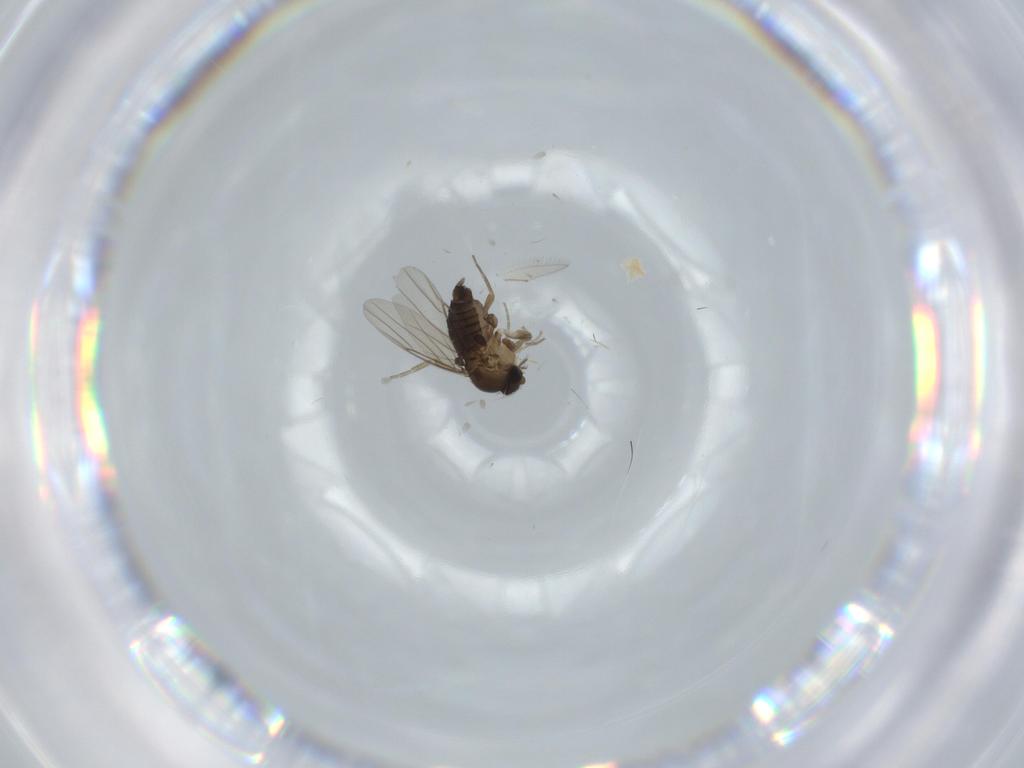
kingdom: Animalia
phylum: Arthropoda
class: Insecta
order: Diptera
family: Phoridae
